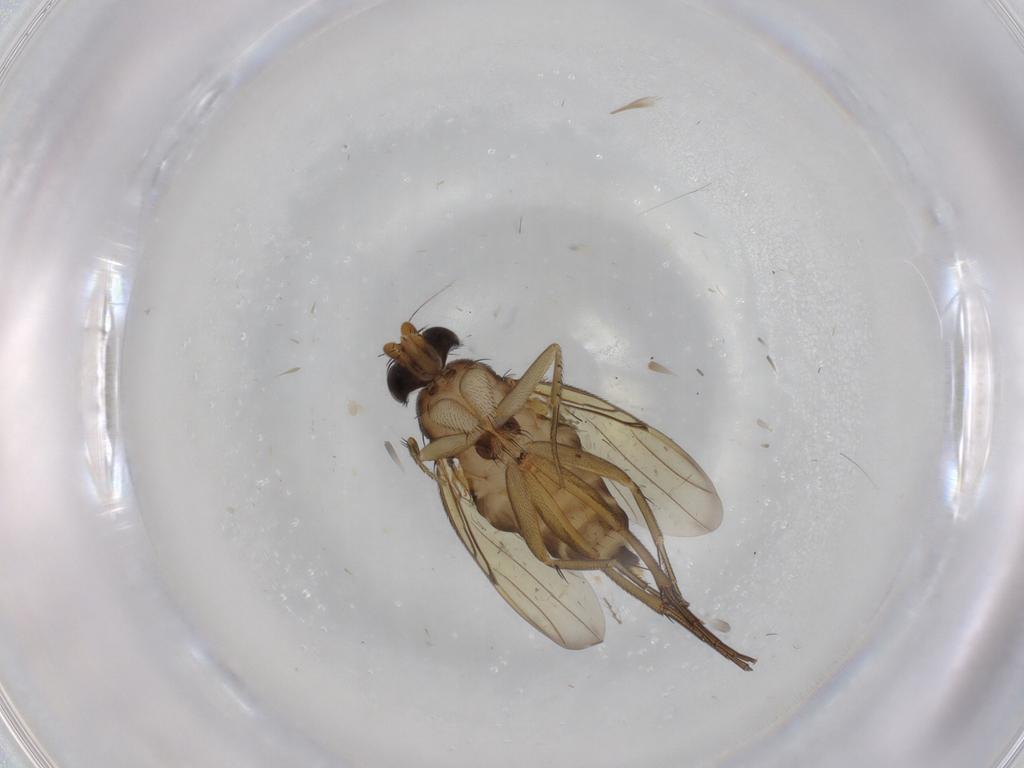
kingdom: Animalia
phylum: Arthropoda
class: Insecta
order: Diptera
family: Phoridae
